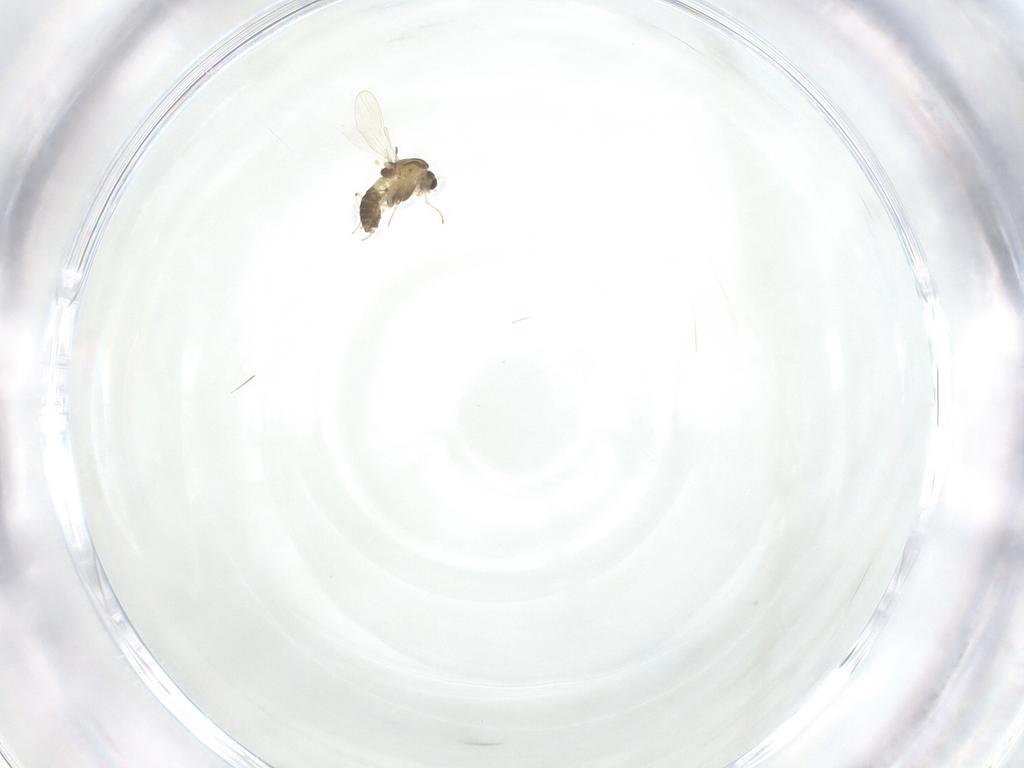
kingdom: Animalia
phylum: Arthropoda
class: Insecta
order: Diptera
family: Chironomidae
